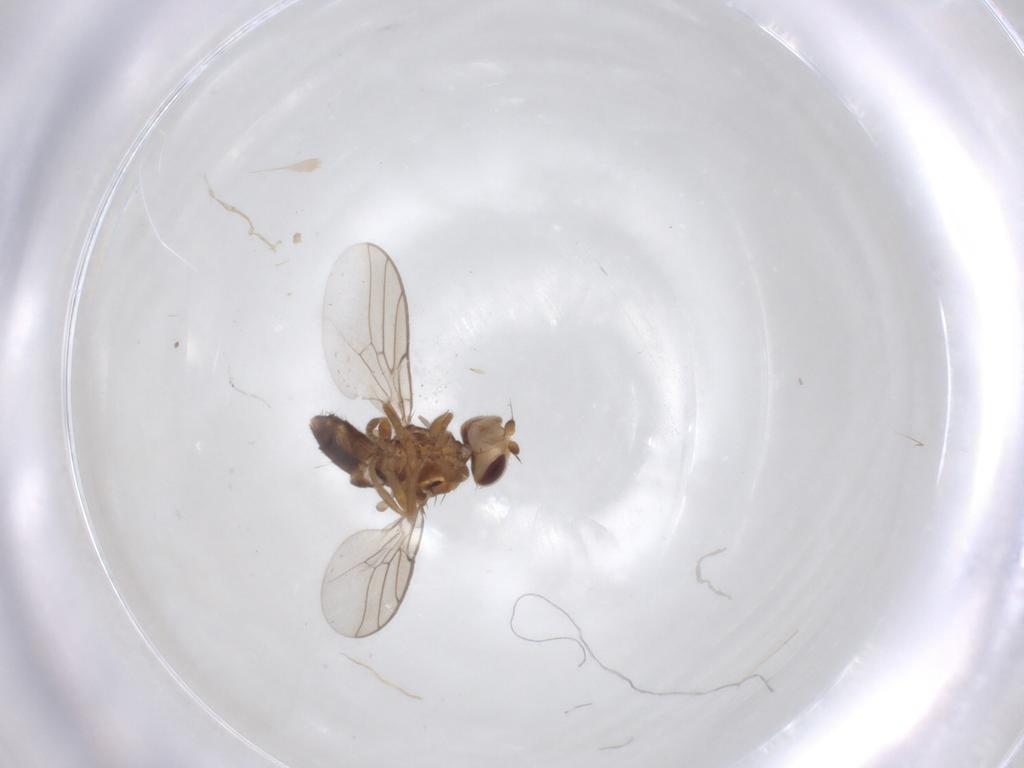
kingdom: Animalia
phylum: Arthropoda
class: Insecta
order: Diptera
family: Chloropidae
